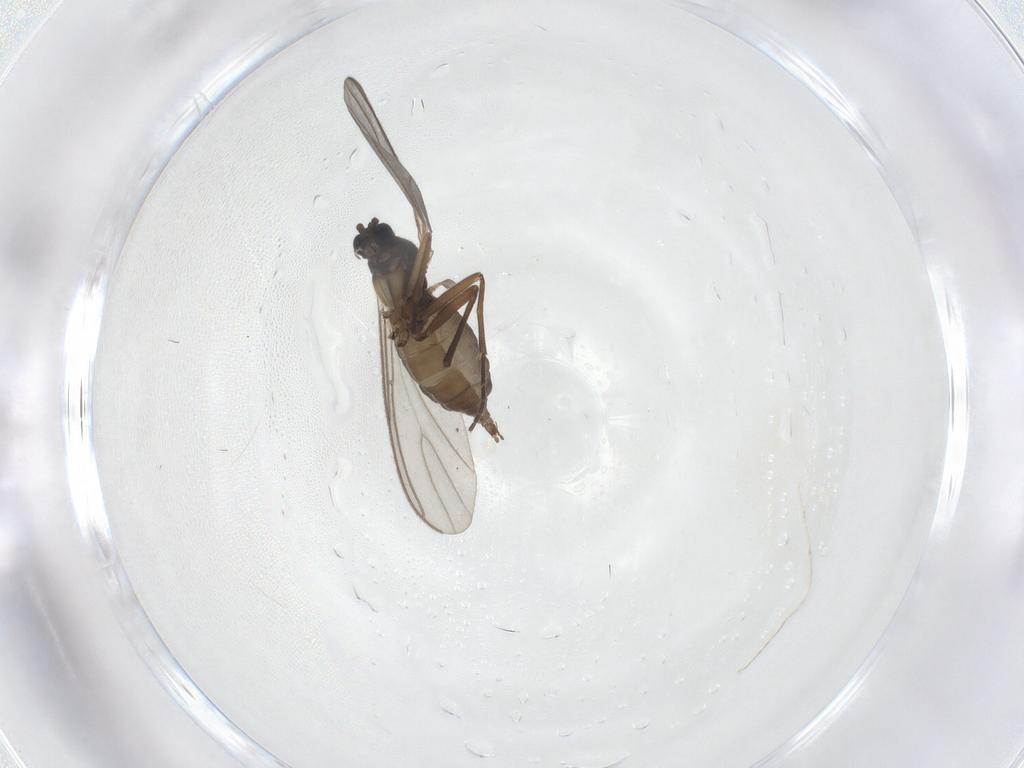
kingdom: Animalia
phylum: Arthropoda
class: Insecta
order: Diptera
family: Sciaridae
